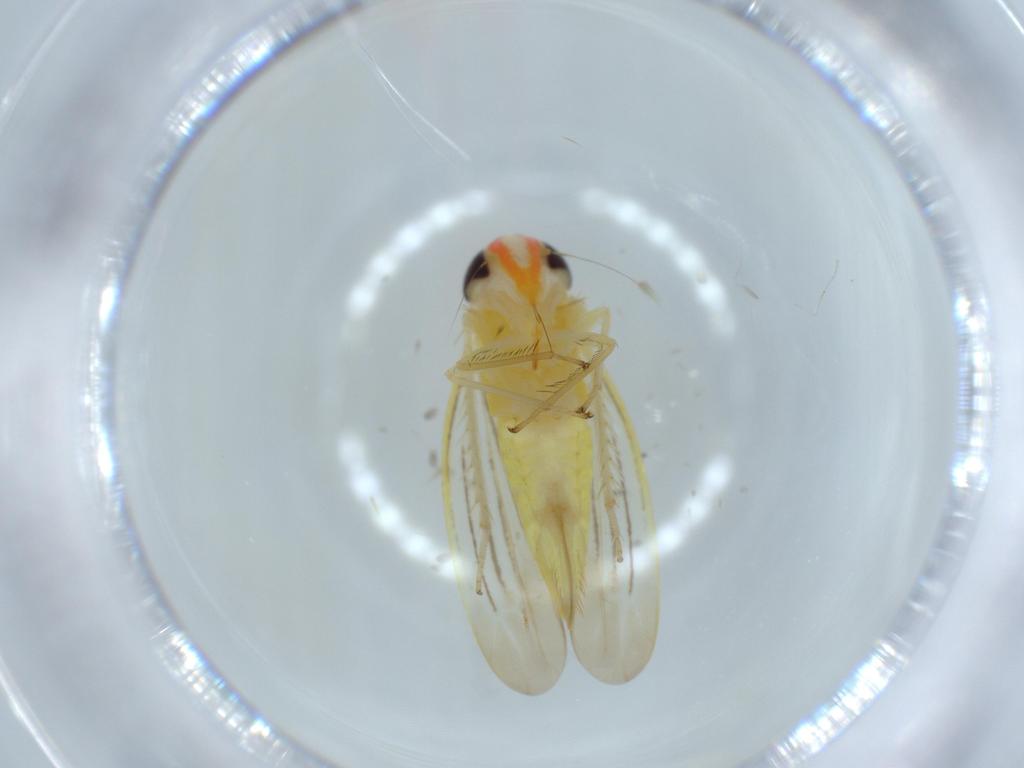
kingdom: Animalia
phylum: Arthropoda
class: Insecta
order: Hemiptera
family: Cicadellidae
